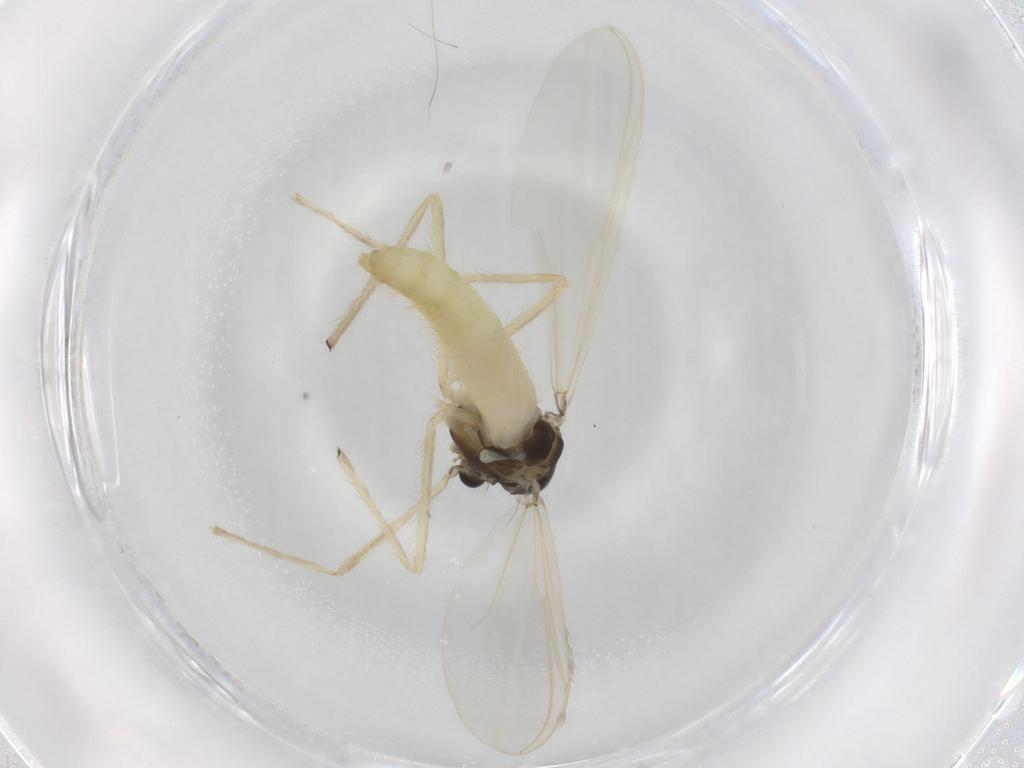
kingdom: Animalia
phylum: Arthropoda
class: Insecta
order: Diptera
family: Chironomidae
